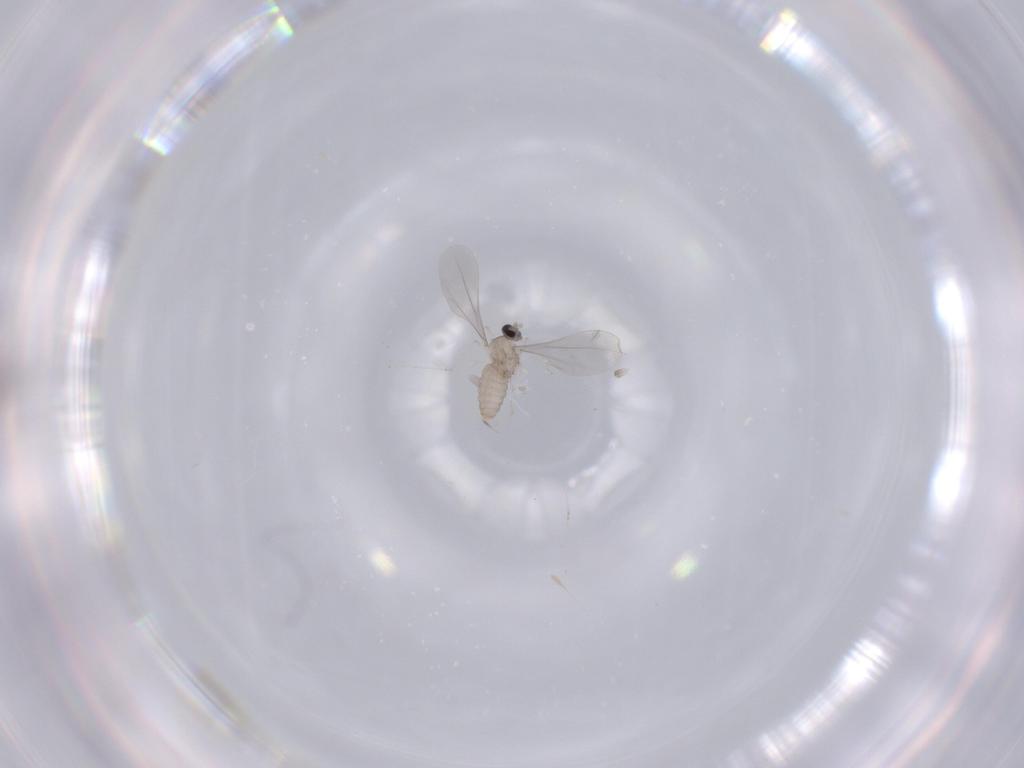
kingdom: Animalia
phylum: Arthropoda
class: Insecta
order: Diptera
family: Cecidomyiidae
